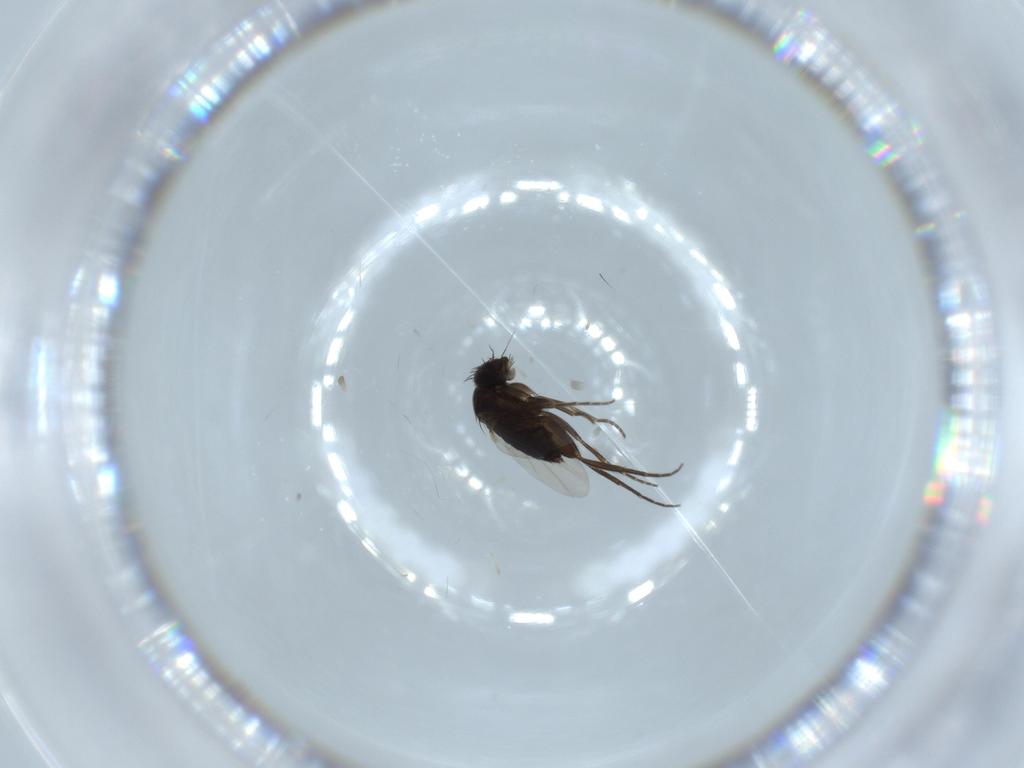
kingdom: Animalia
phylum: Arthropoda
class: Insecta
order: Diptera
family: Phoridae
